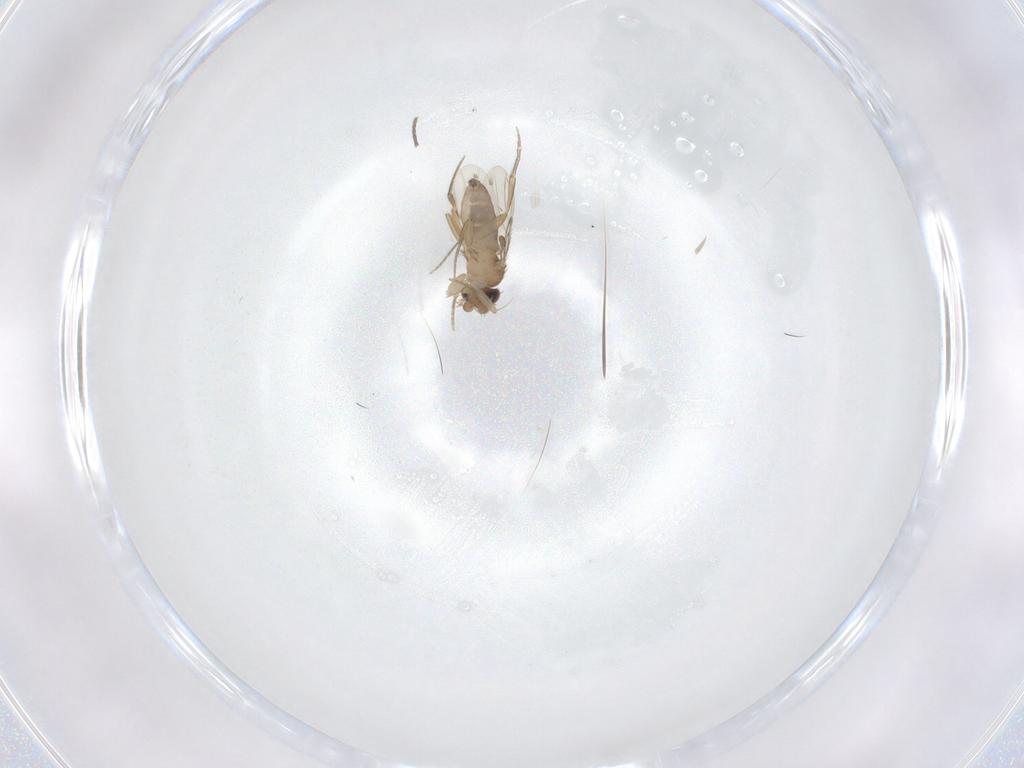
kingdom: Animalia
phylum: Arthropoda
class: Insecta
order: Diptera
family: Phoridae
